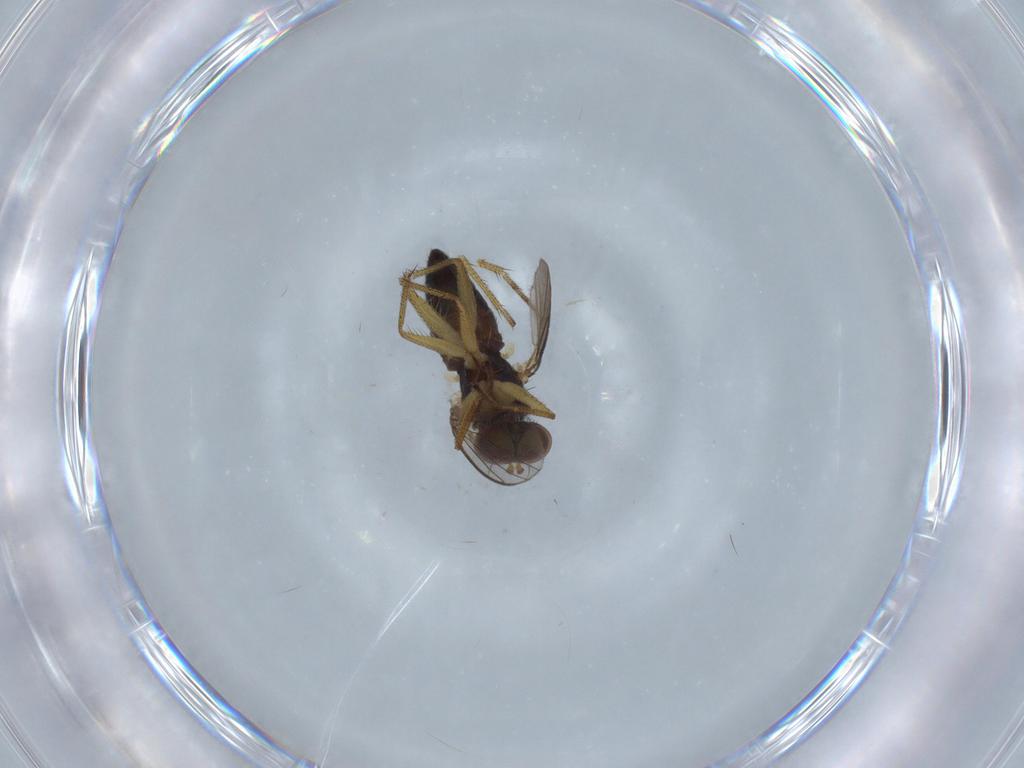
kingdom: Animalia
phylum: Arthropoda
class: Insecta
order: Diptera
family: Dolichopodidae
